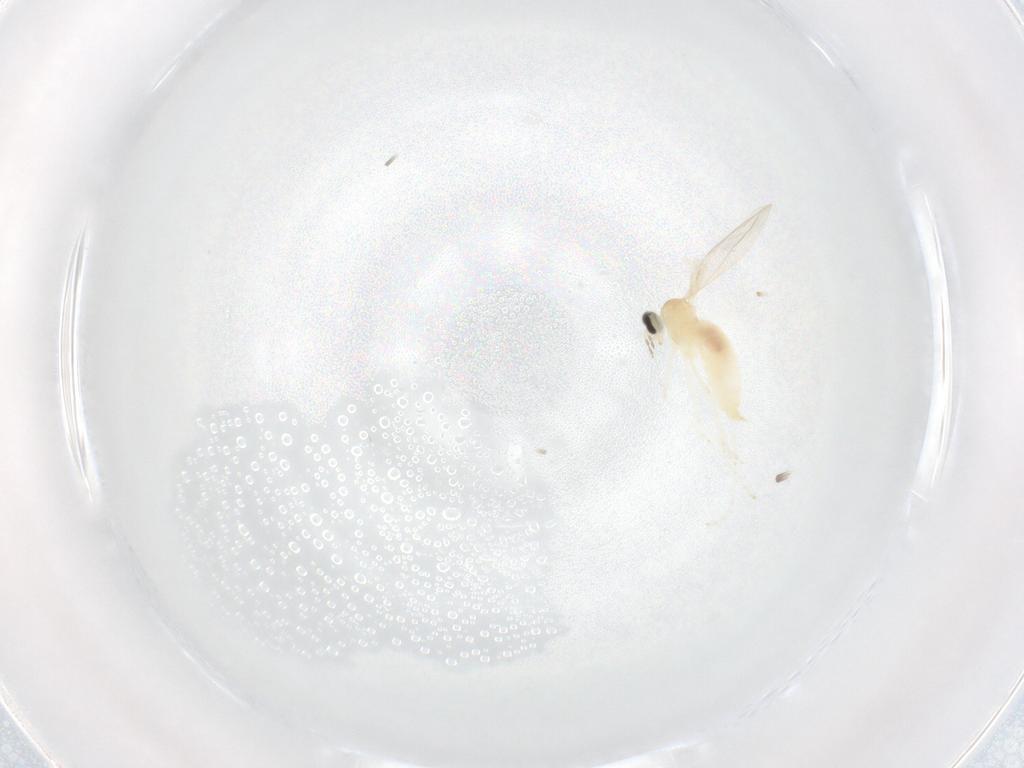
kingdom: Animalia
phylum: Arthropoda
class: Insecta
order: Diptera
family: Cecidomyiidae
